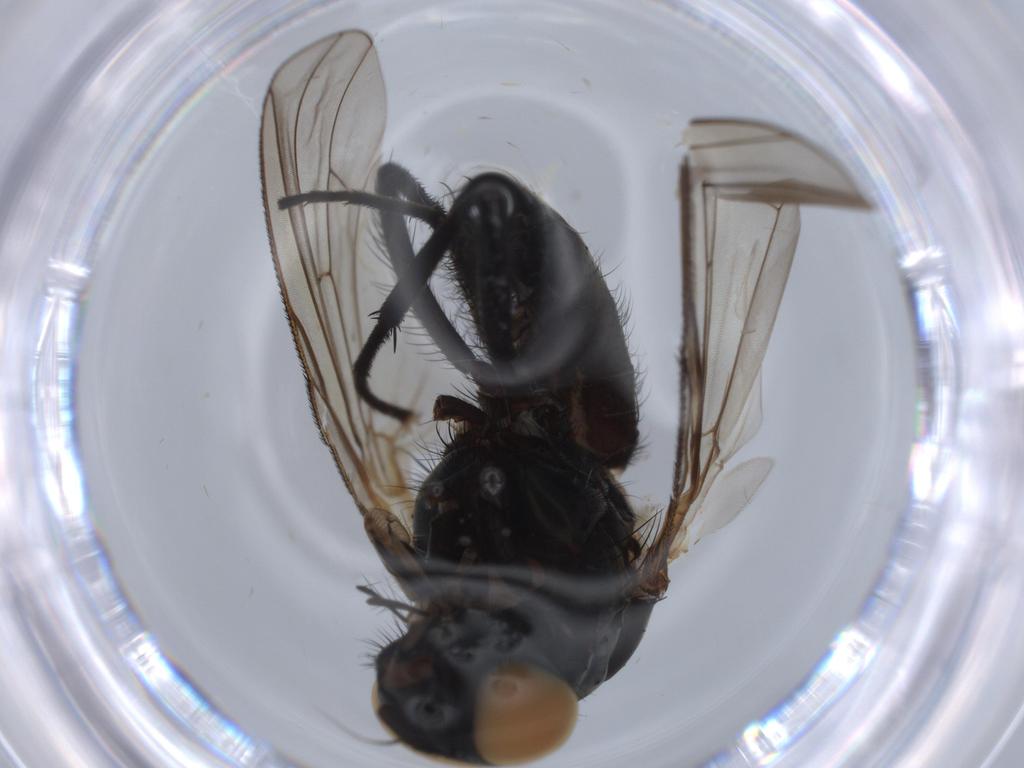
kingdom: Animalia
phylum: Arthropoda
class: Insecta
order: Diptera
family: Anthomyiidae
